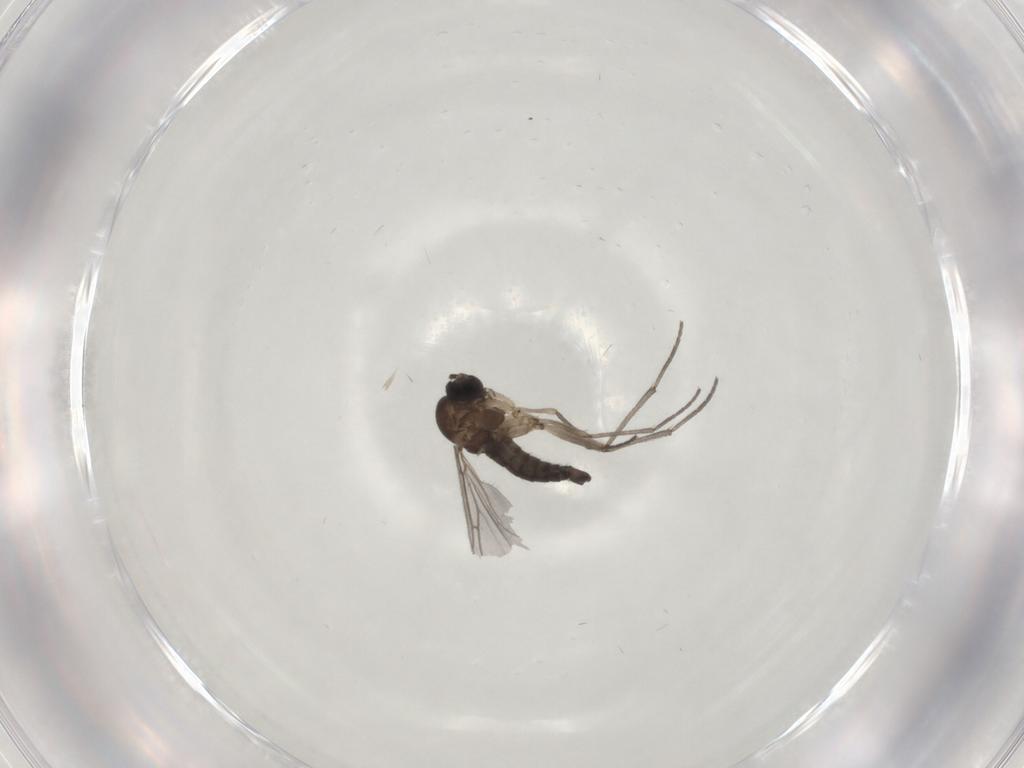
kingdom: Animalia
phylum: Arthropoda
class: Insecta
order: Diptera
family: Sciaridae
